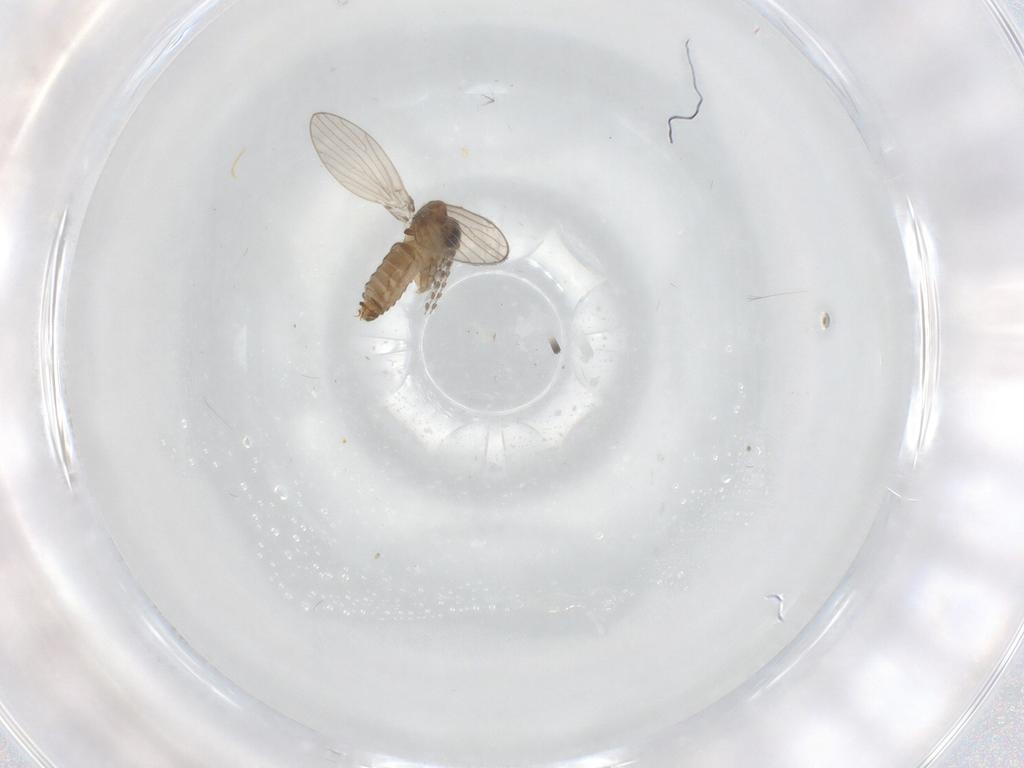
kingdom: Animalia
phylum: Arthropoda
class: Insecta
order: Diptera
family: Psychodidae
